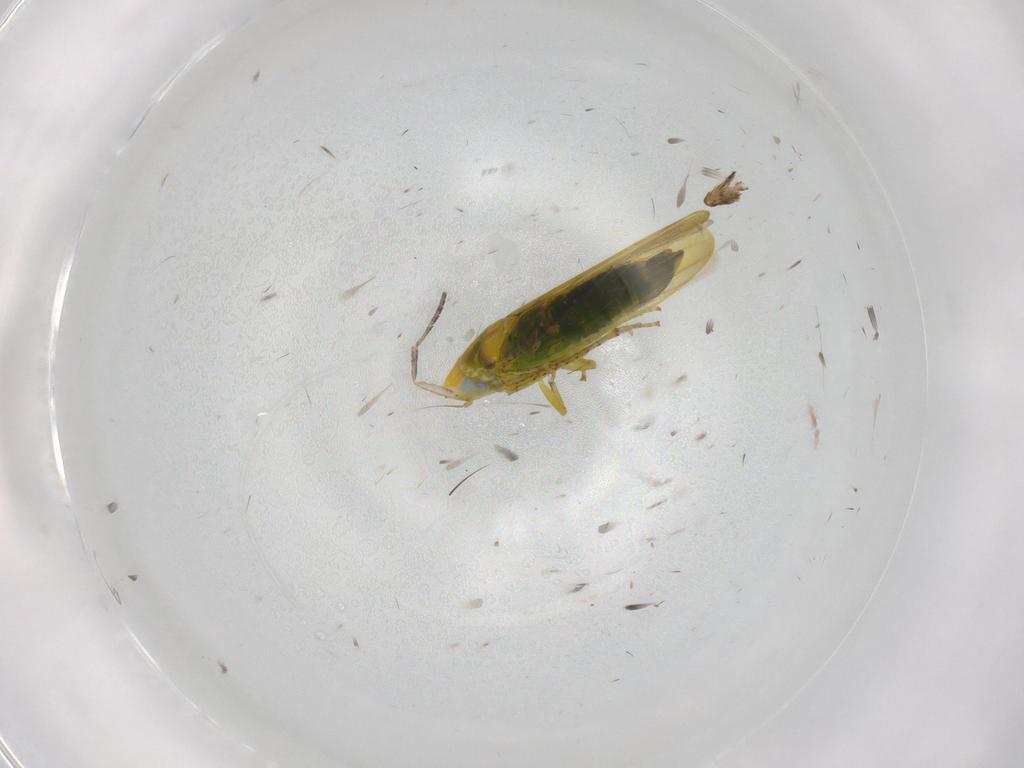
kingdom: Animalia
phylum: Arthropoda
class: Insecta
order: Hemiptera
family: Cicadellidae
